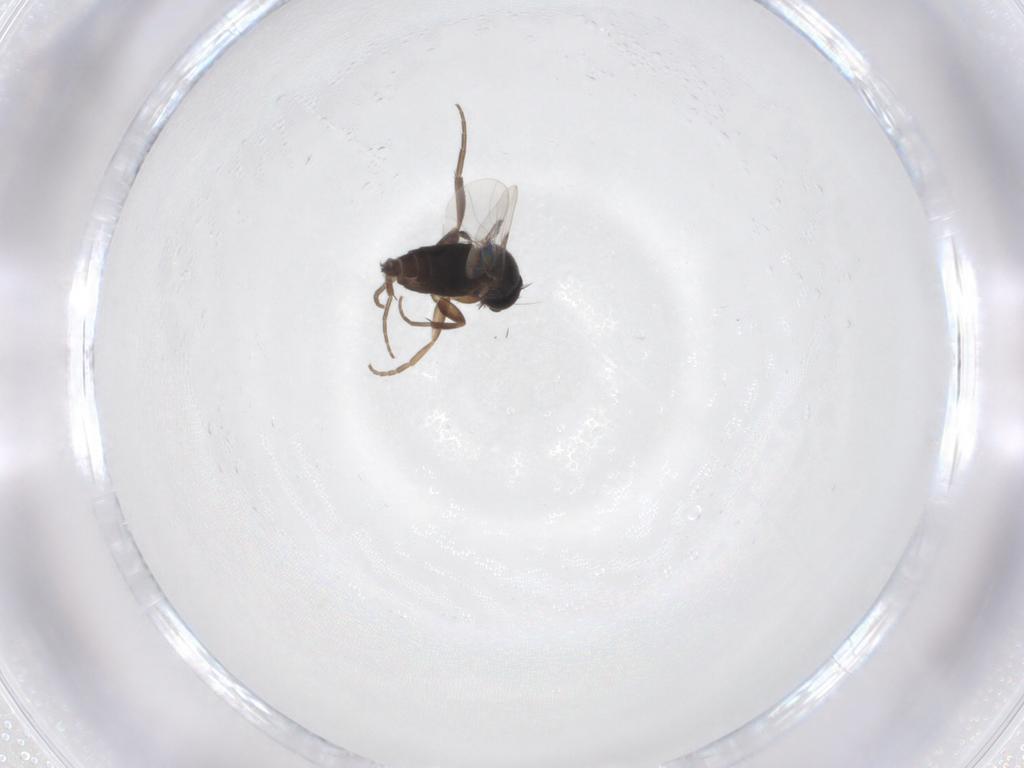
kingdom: Animalia
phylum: Arthropoda
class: Insecta
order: Diptera
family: Phoridae
